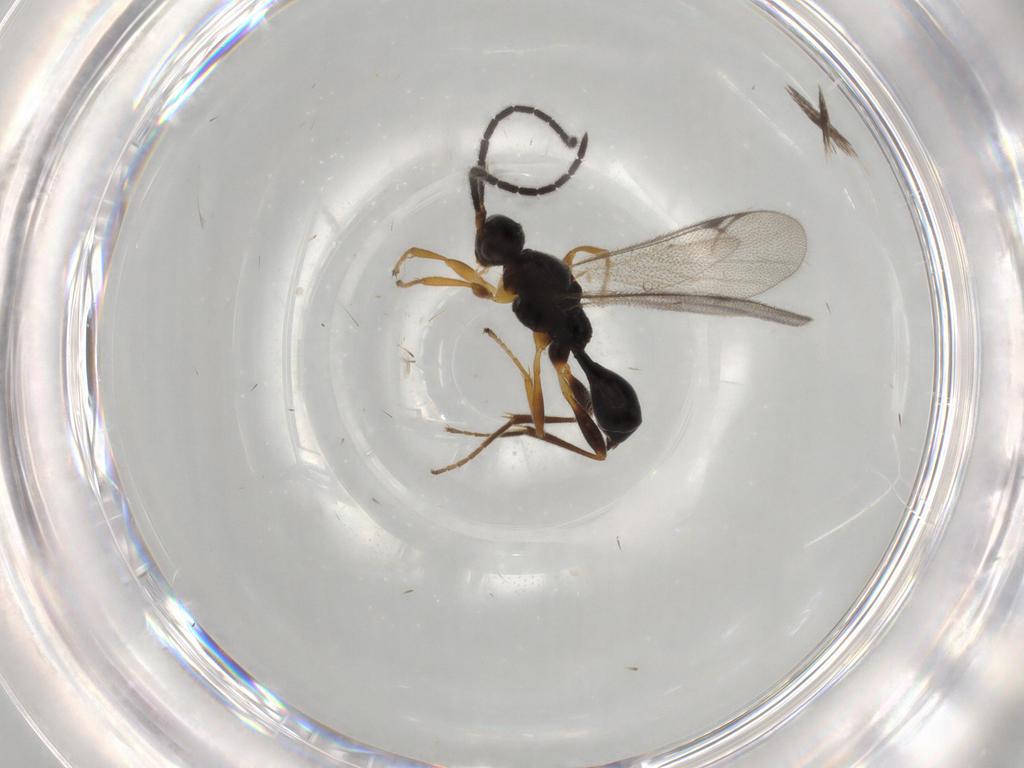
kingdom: Animalia
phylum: Arthropoda
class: Insecta
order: Hymenoptera
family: Proctotrupidae
